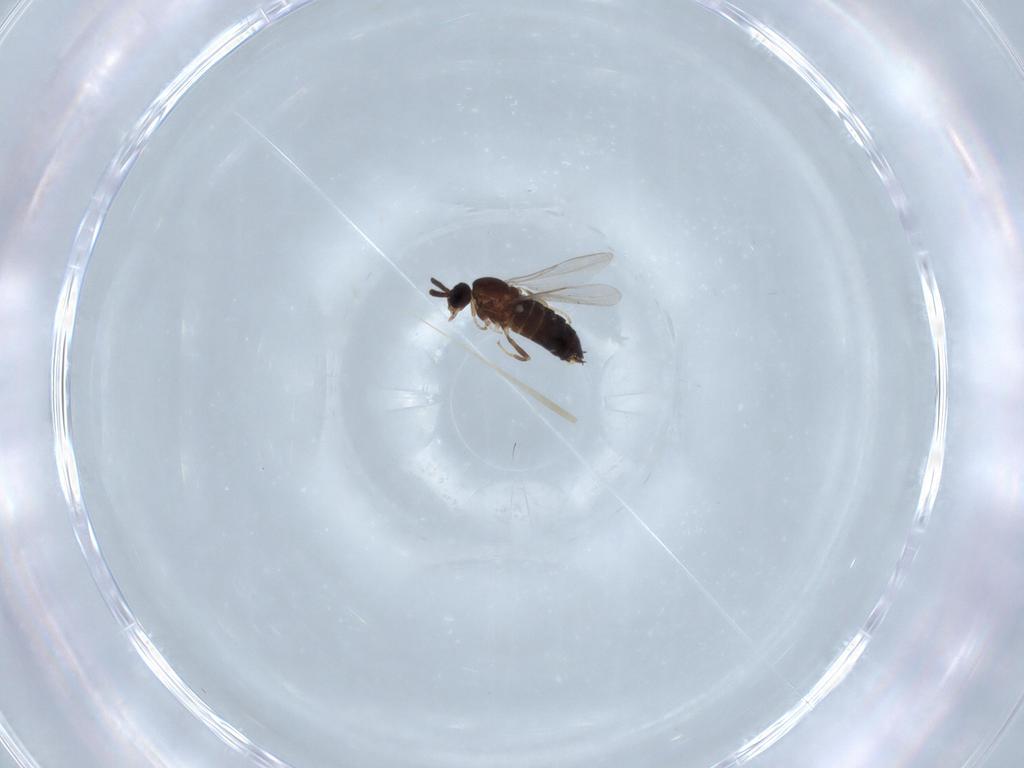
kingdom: Animalia
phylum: Arthropoda
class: Insecta
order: Diptera
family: Scatopsidae
